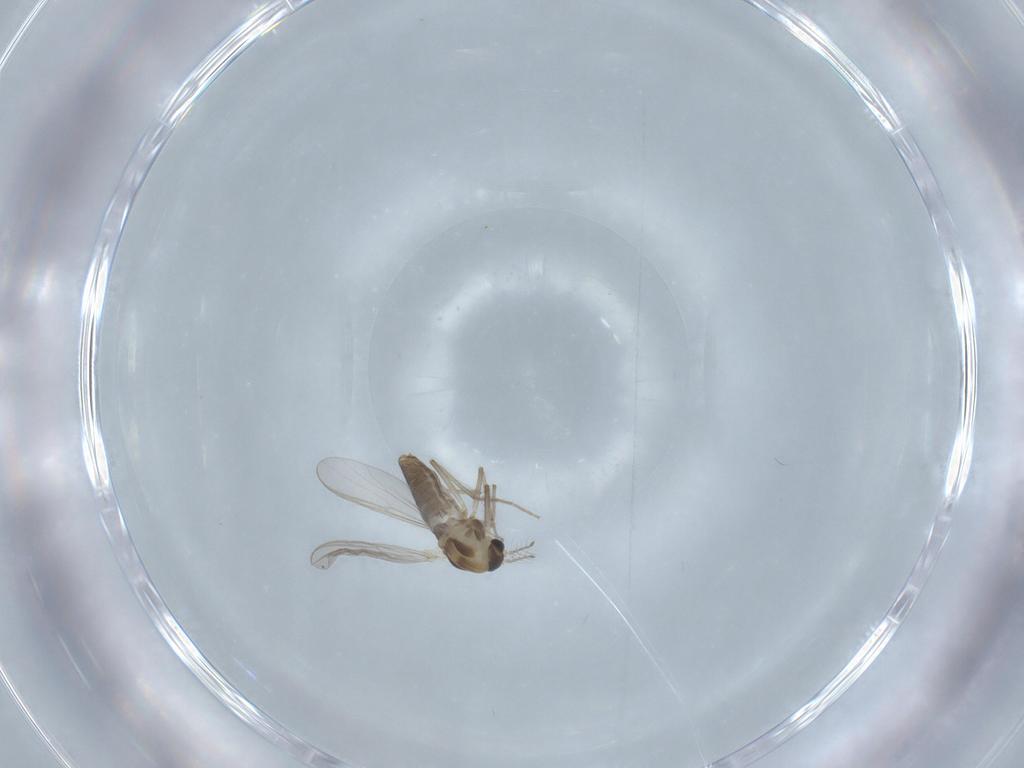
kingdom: Animalia
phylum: Arthropoda
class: Insecta
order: Diptera
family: Chironomidae
